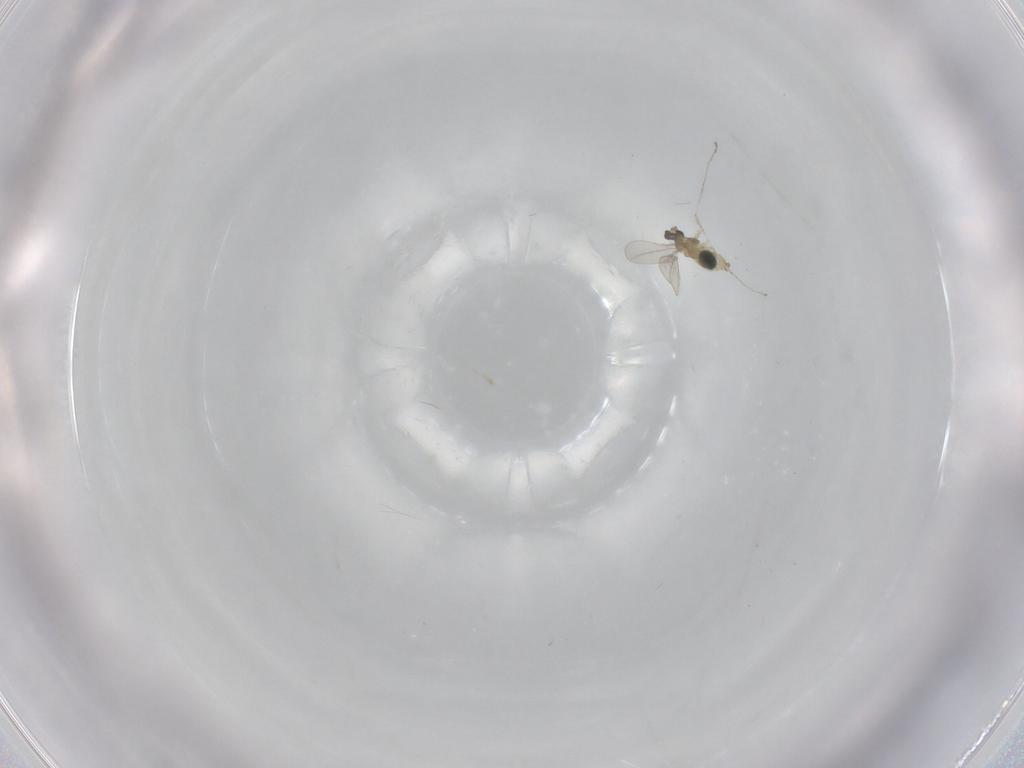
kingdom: Animalia
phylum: Arthropoda
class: Insecta
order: Diptera
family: Cecidomyiidae
